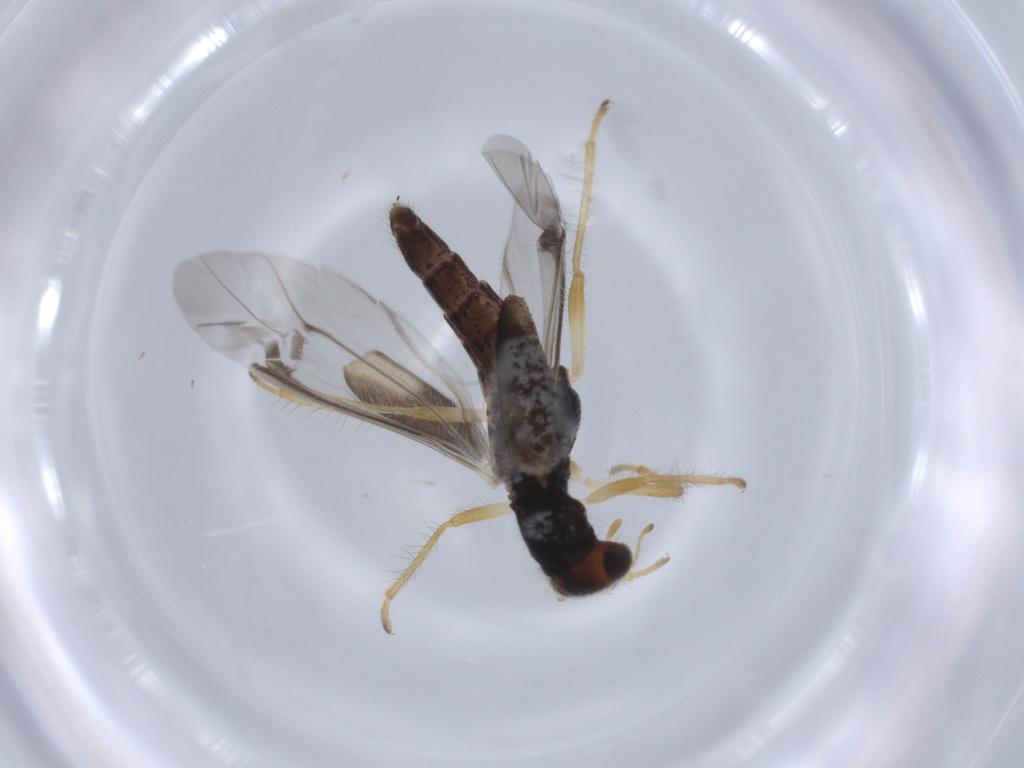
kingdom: Animalia
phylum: Arthropoda
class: Insecta
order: Coleoptera
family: Cleridae
